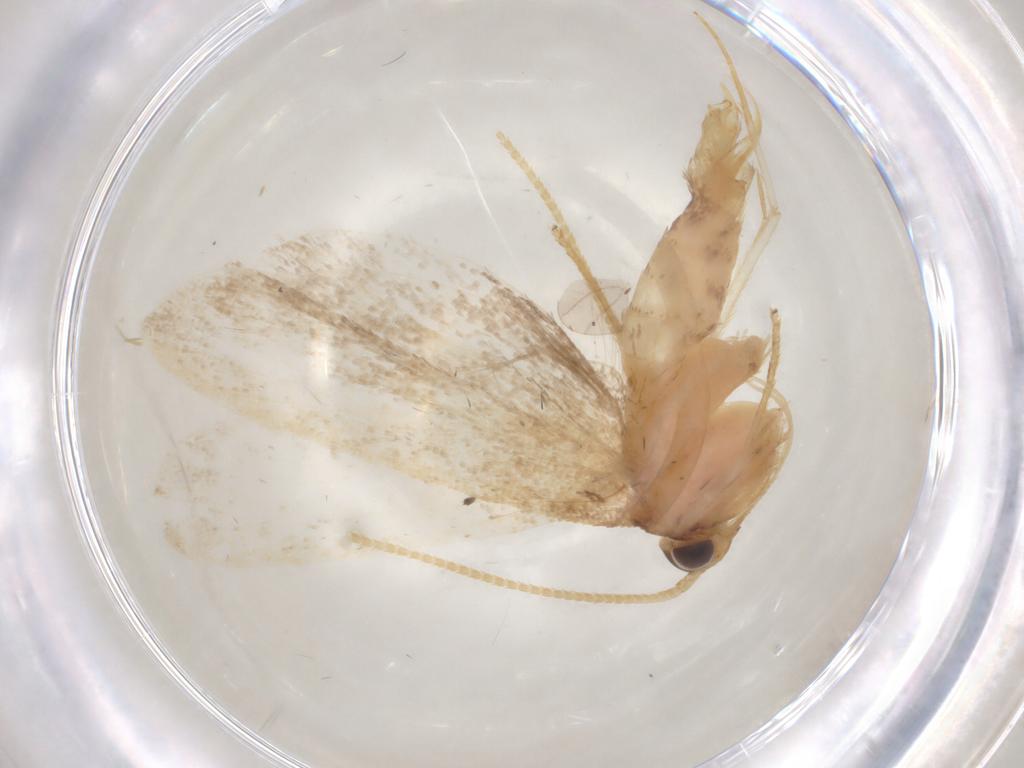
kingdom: Animalia
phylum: Arthropoda
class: Insecta
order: Lepidoptera
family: Lecithoceridae
